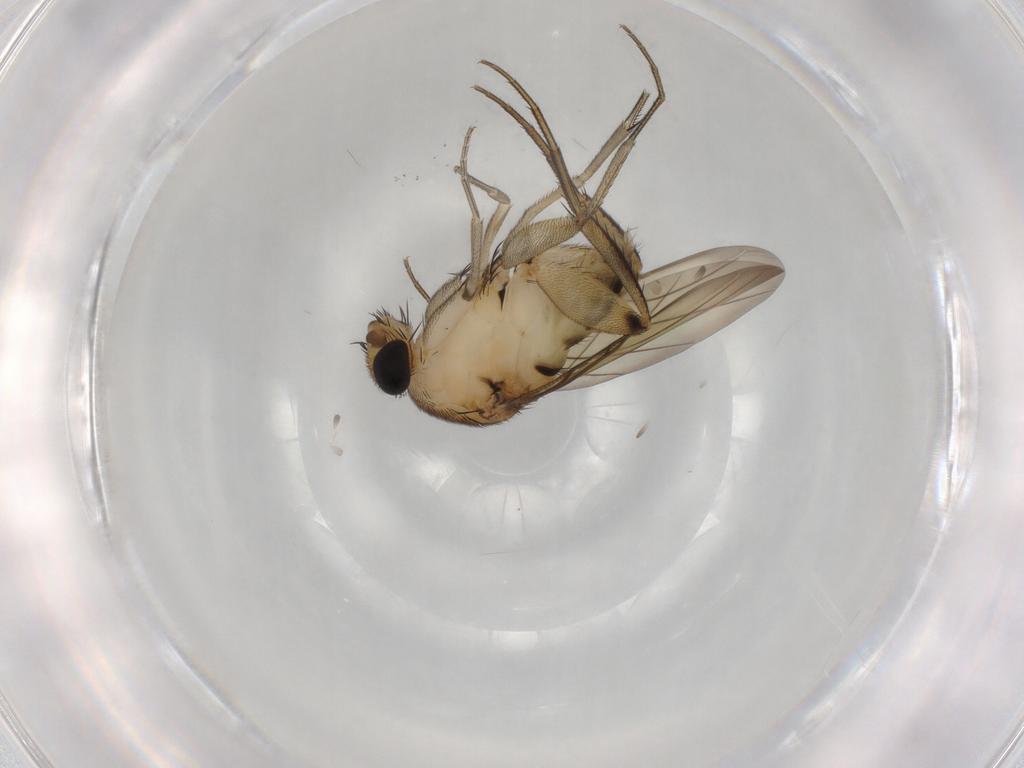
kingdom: Animalia
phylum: Arthropoda
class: Insecta
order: Diptera
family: Phoridae
